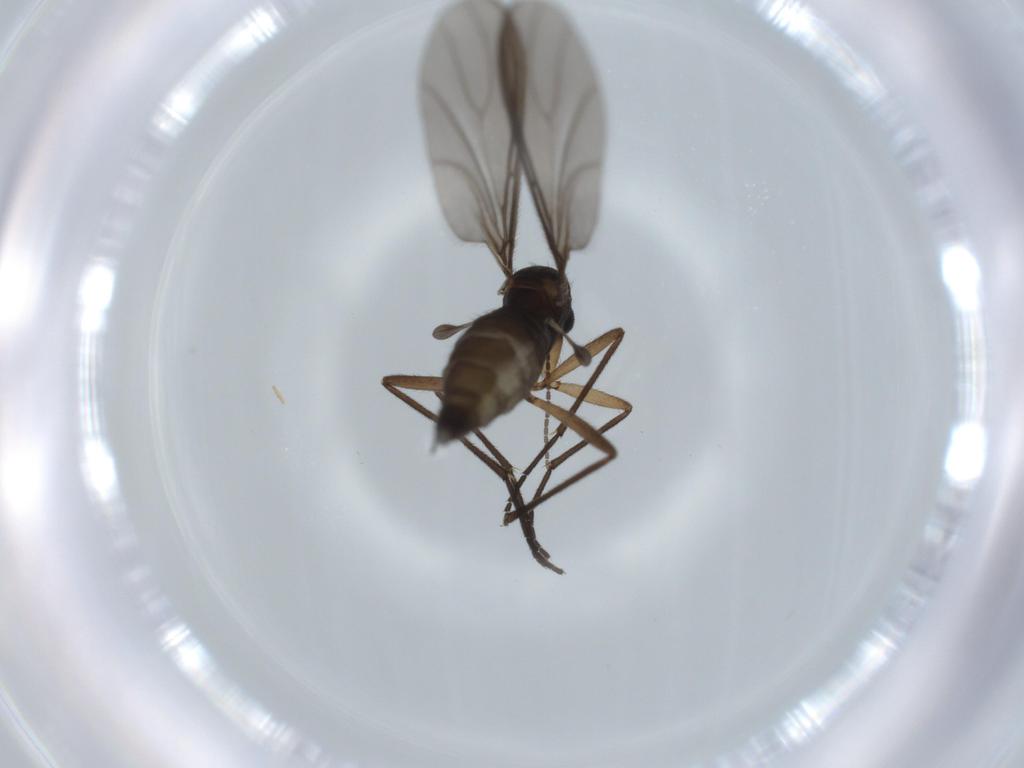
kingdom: Animalia
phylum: Arthropoda
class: Insecta
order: Diptera
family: Sciaridae
